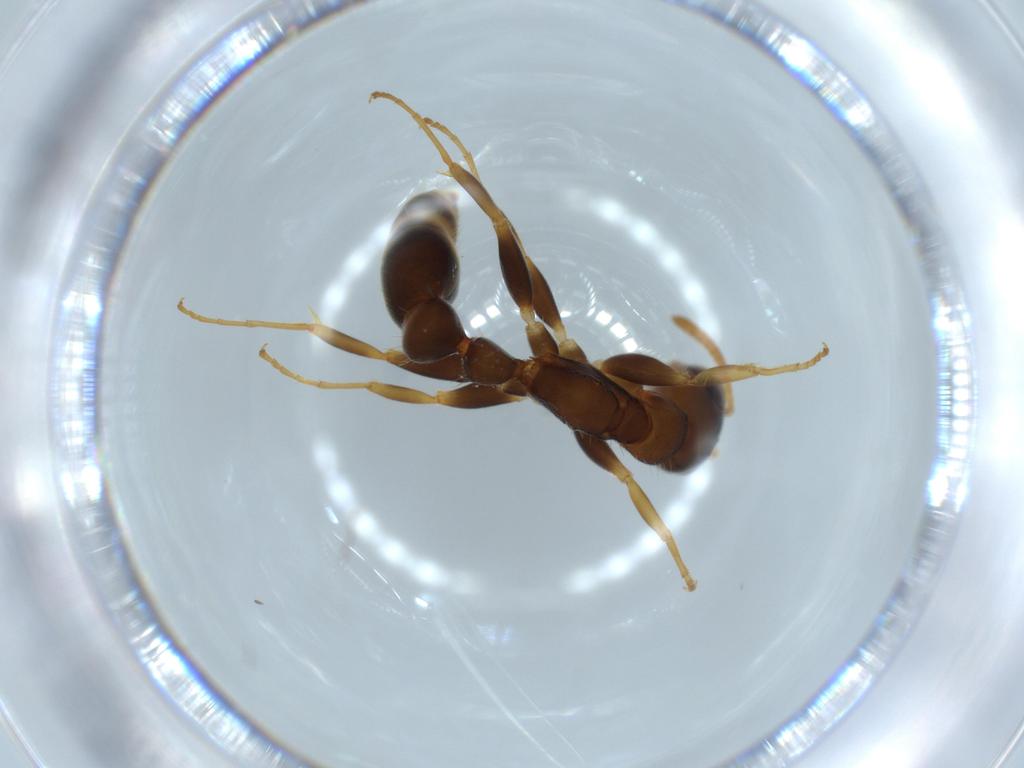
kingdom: Animalia
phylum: Arthropoda
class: Insecta
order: Hymenoptera
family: Formicidae
